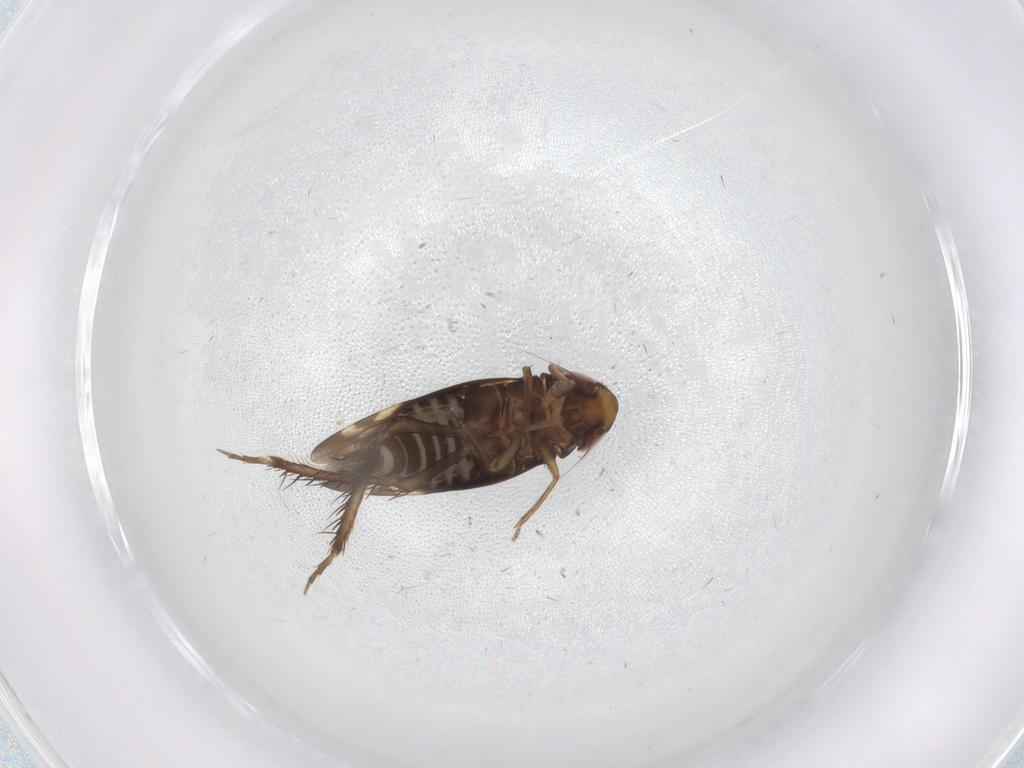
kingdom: Animalia
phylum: Arthropoda
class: Insecta
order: Hemiptera
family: Cicadellidae
